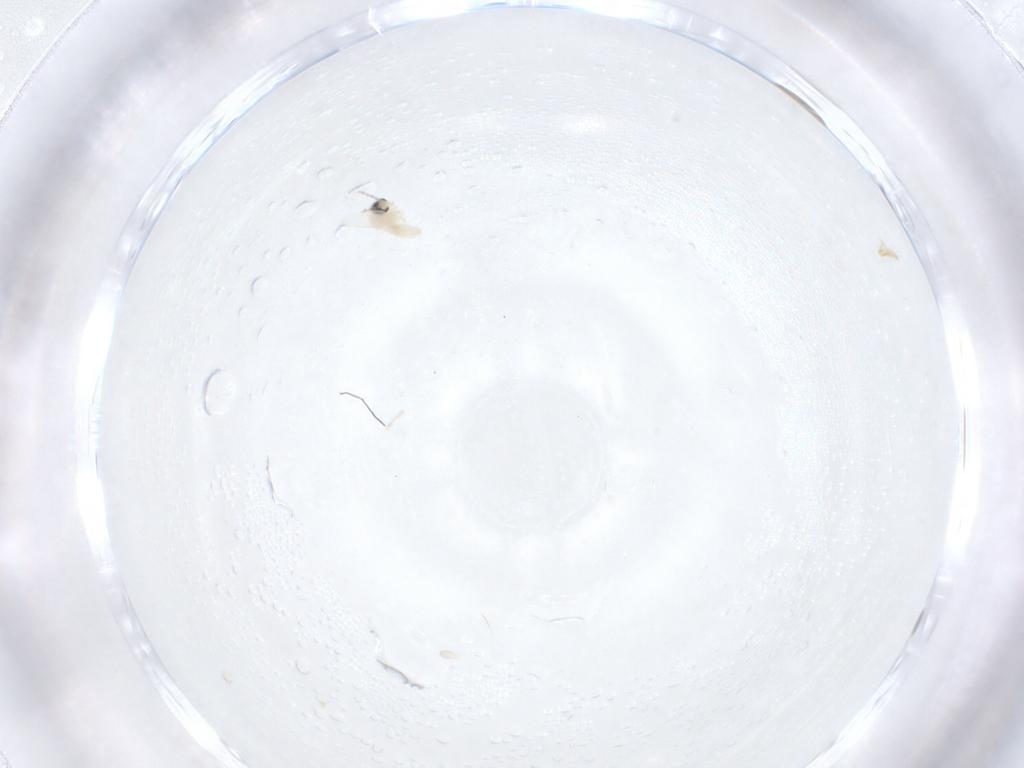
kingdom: Animalia
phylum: Arthropoda
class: Insecta
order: Diptera
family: Cecidomyiidae
